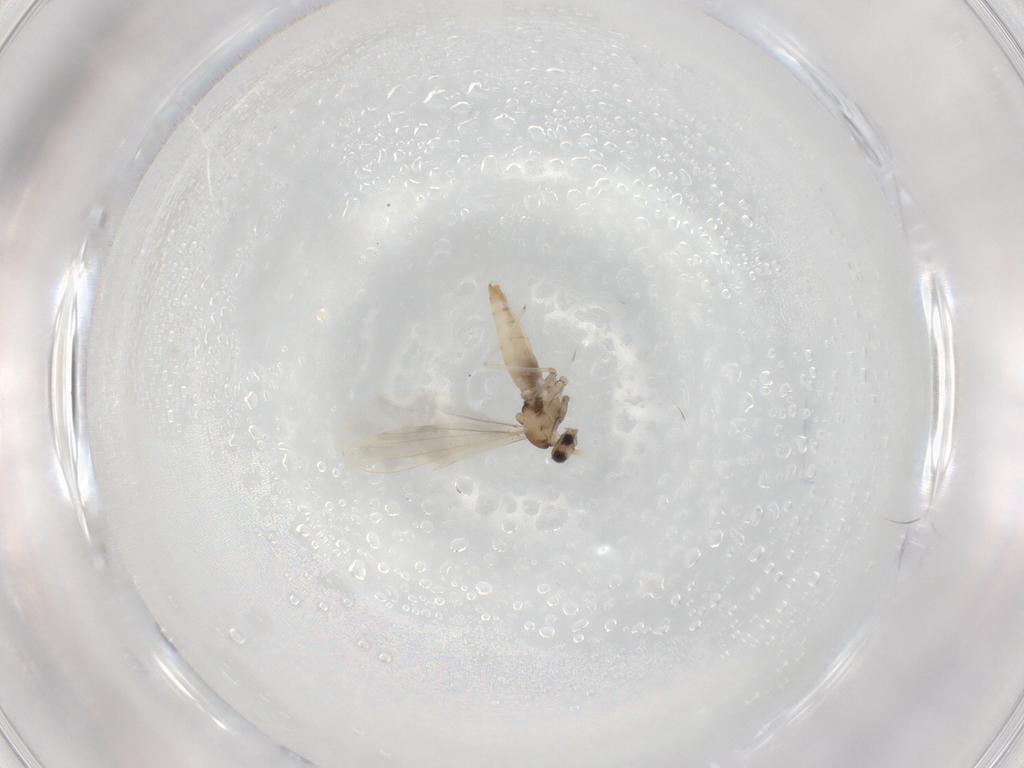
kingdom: Animalia
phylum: Arthropoda
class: Insecta
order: Diptera
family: Cecidomyiidae
